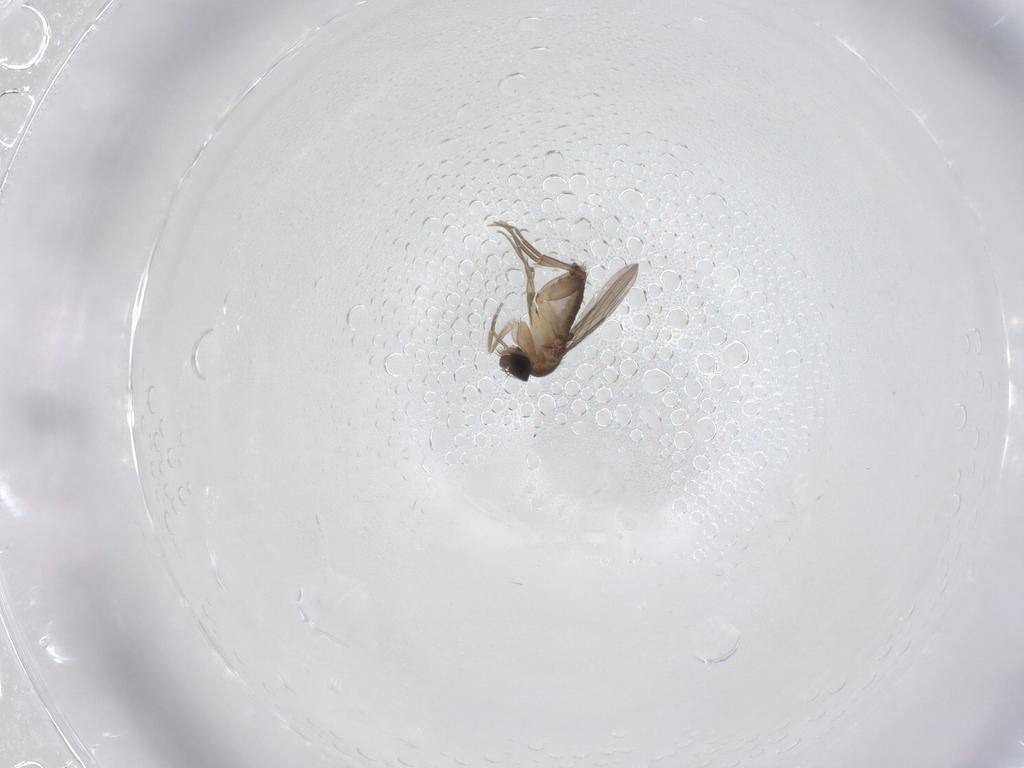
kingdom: Animalia
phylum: Arthropoda
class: Insecta
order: Diptera
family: Phoridae
